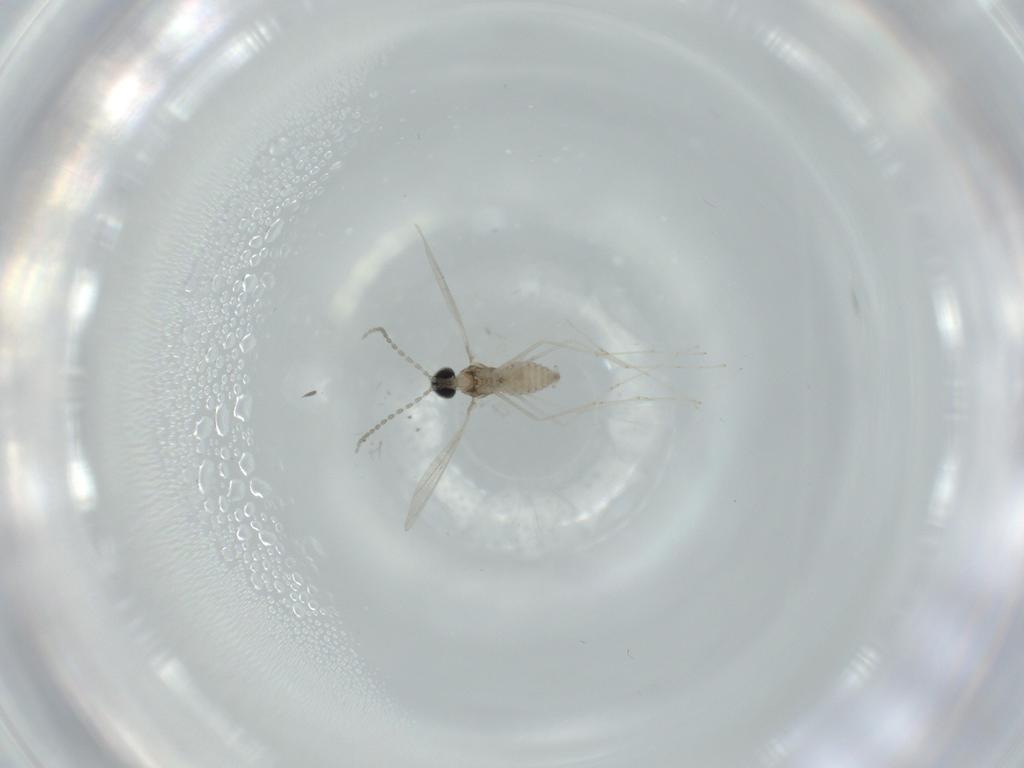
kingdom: Animalia
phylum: Arthropoda
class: Insecta
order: Diptera
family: Cecidomyiidae
